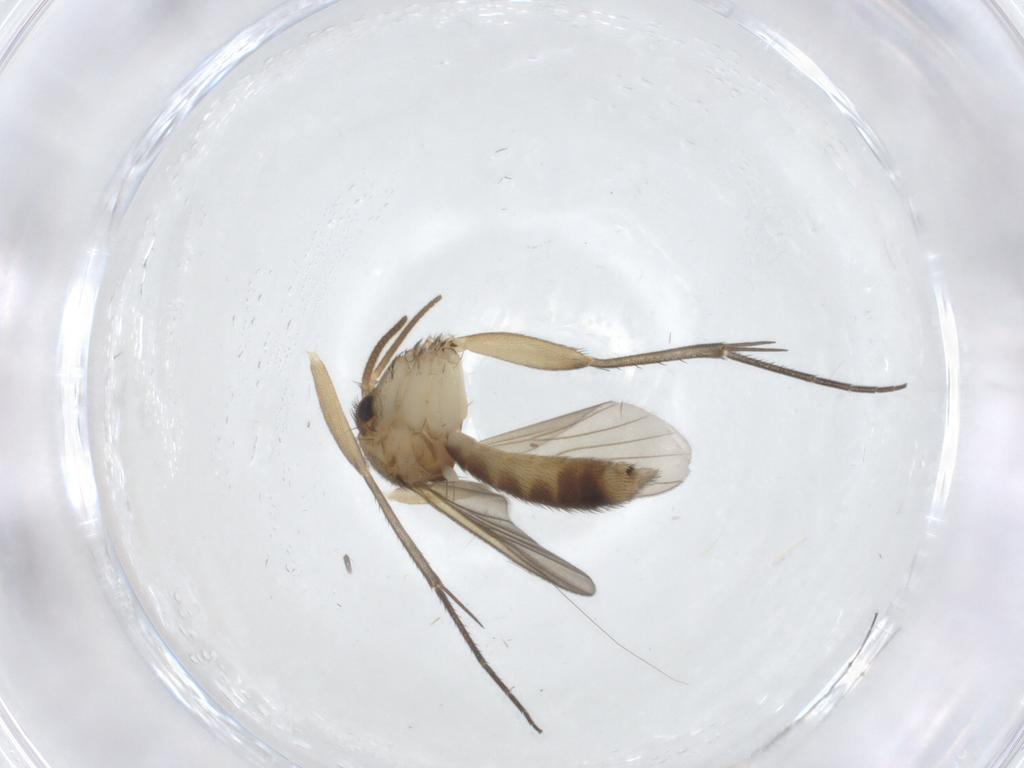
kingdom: Animalia
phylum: Arthropoda
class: Insecta
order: Diptera
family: Mycetophilidae
